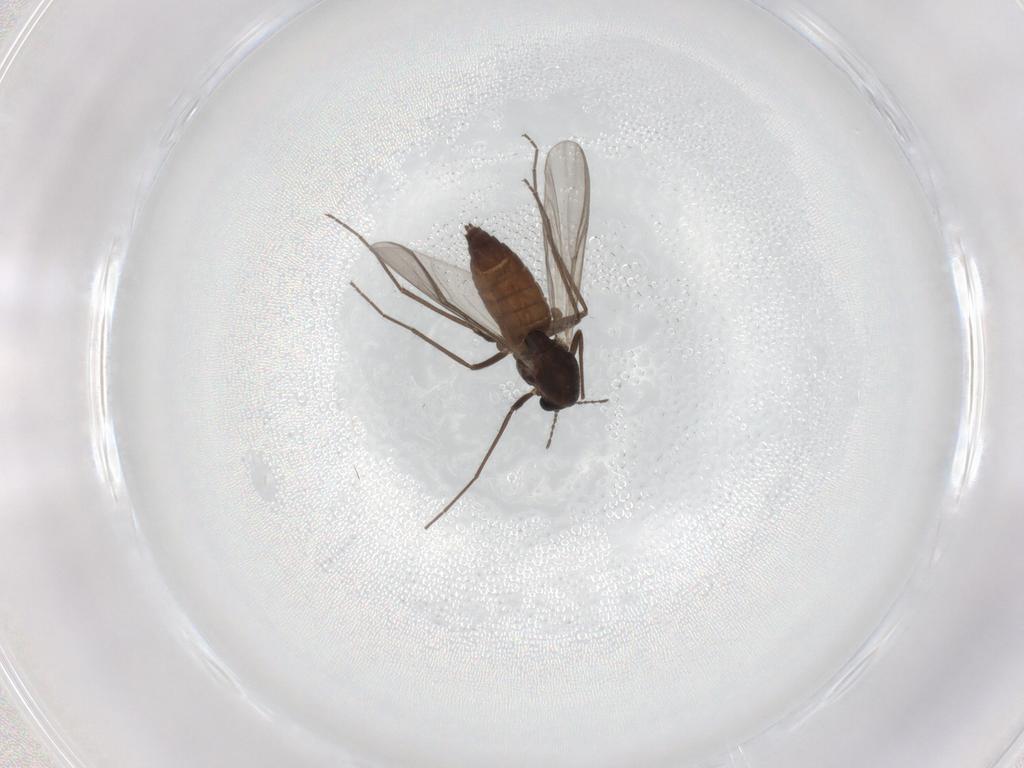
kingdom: Animalia
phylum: Arthropoda
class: Insecta
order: Diptera
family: Chironomidae
